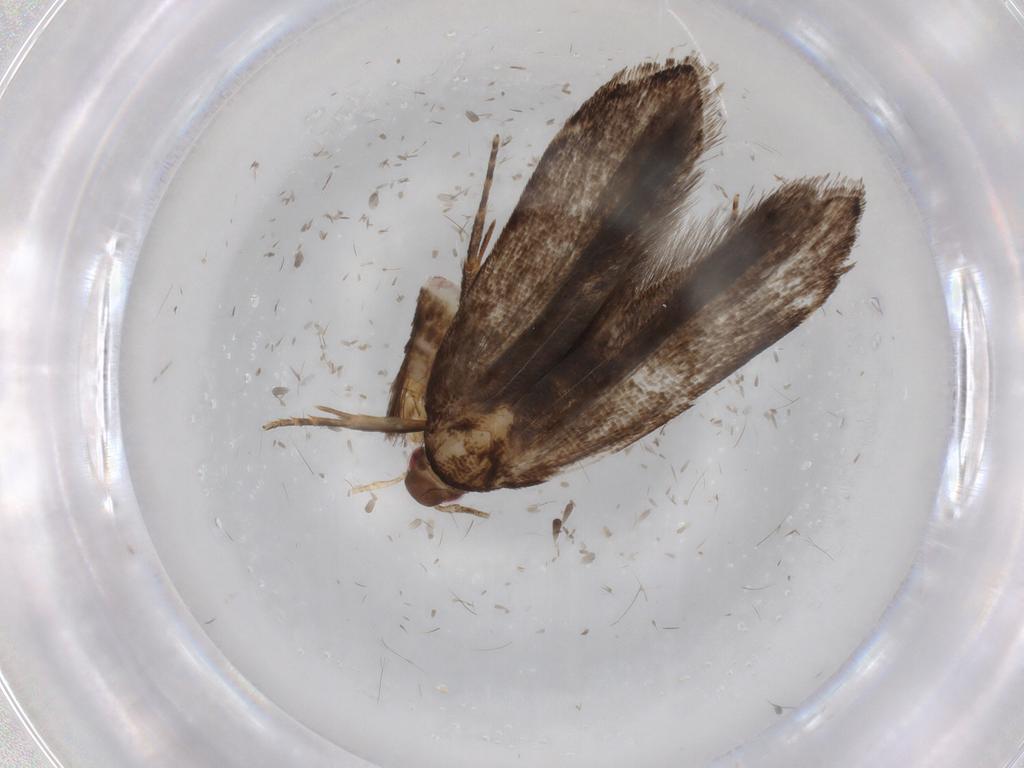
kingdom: Animalia
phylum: Arthropoda
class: Insecta
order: Lepidoptera
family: Gelechiidae
